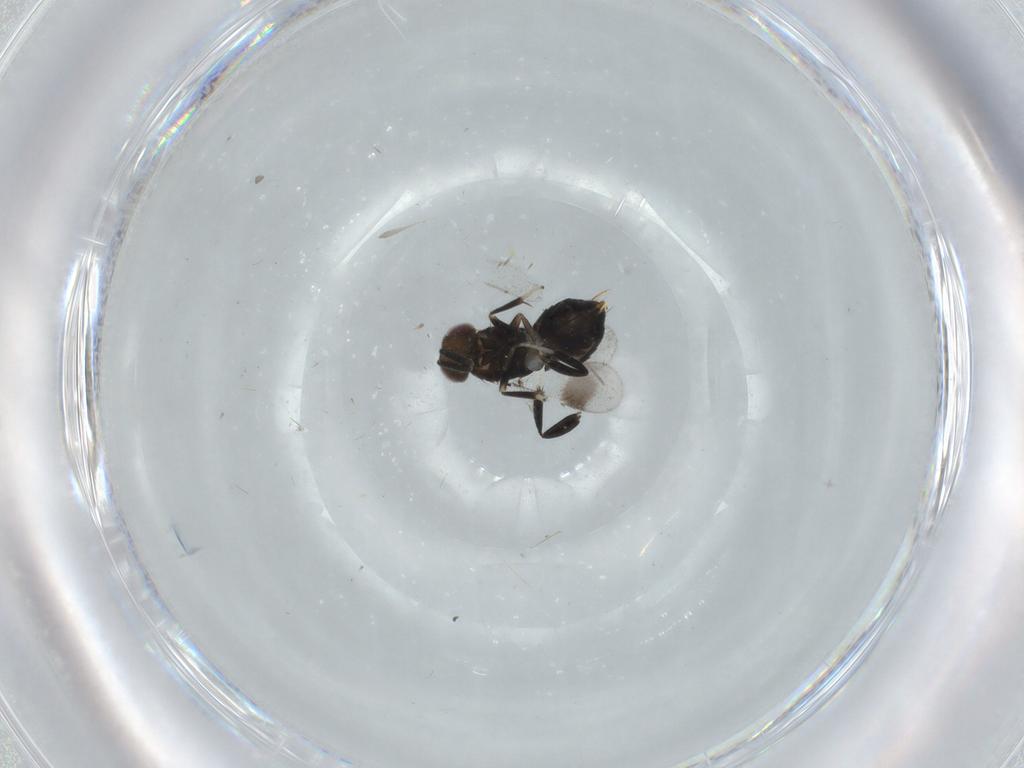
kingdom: Animalia
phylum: Arthropoda
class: Insecta
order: Hymenoptera
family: Aphelinidae
